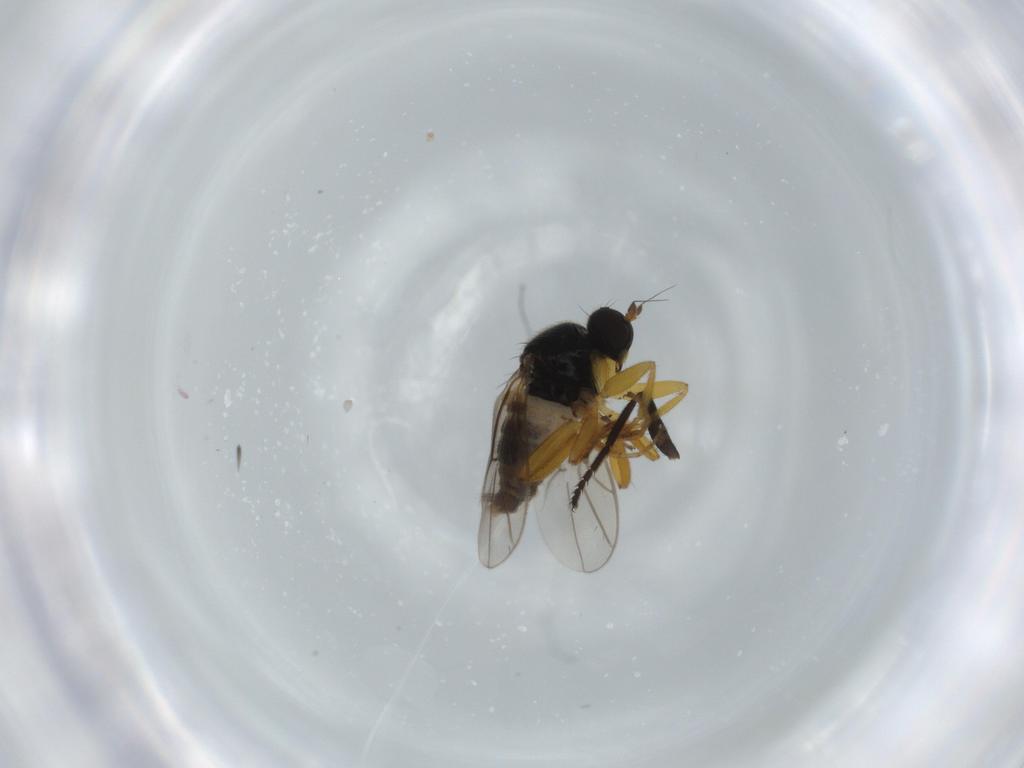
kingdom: Animalia
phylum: Arthropoda
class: Insecta
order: Diptera
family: Hybotidae
